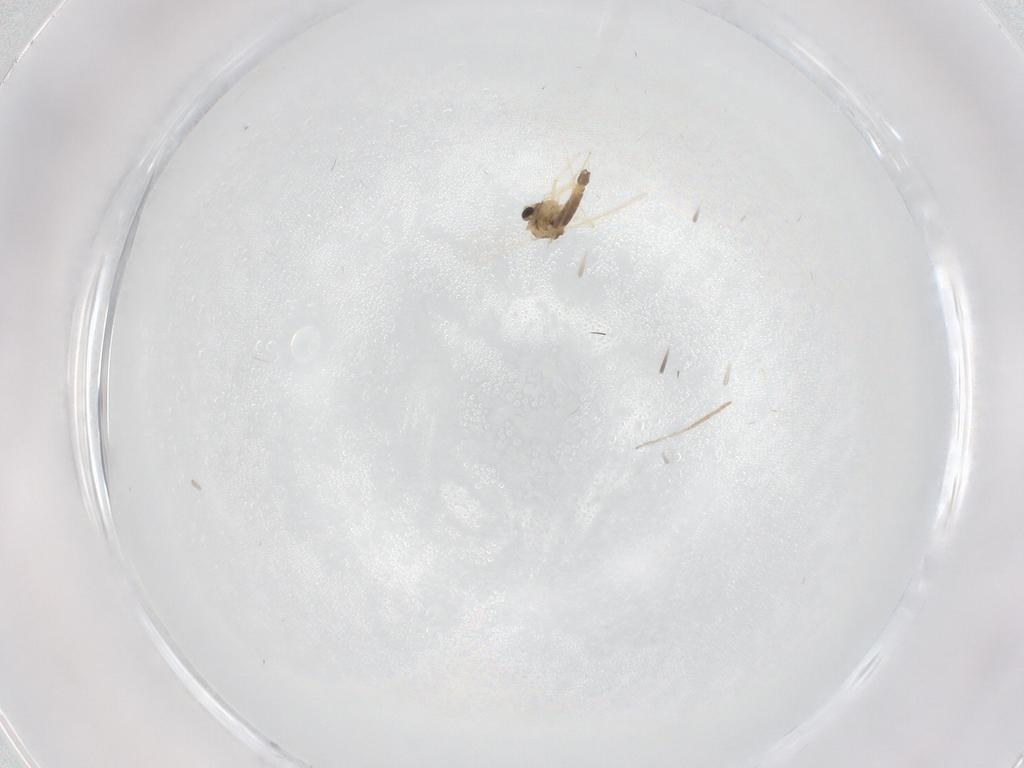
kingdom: Animalia
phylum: Arthropoda
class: Insecta
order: Diptera
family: Chironomidae
